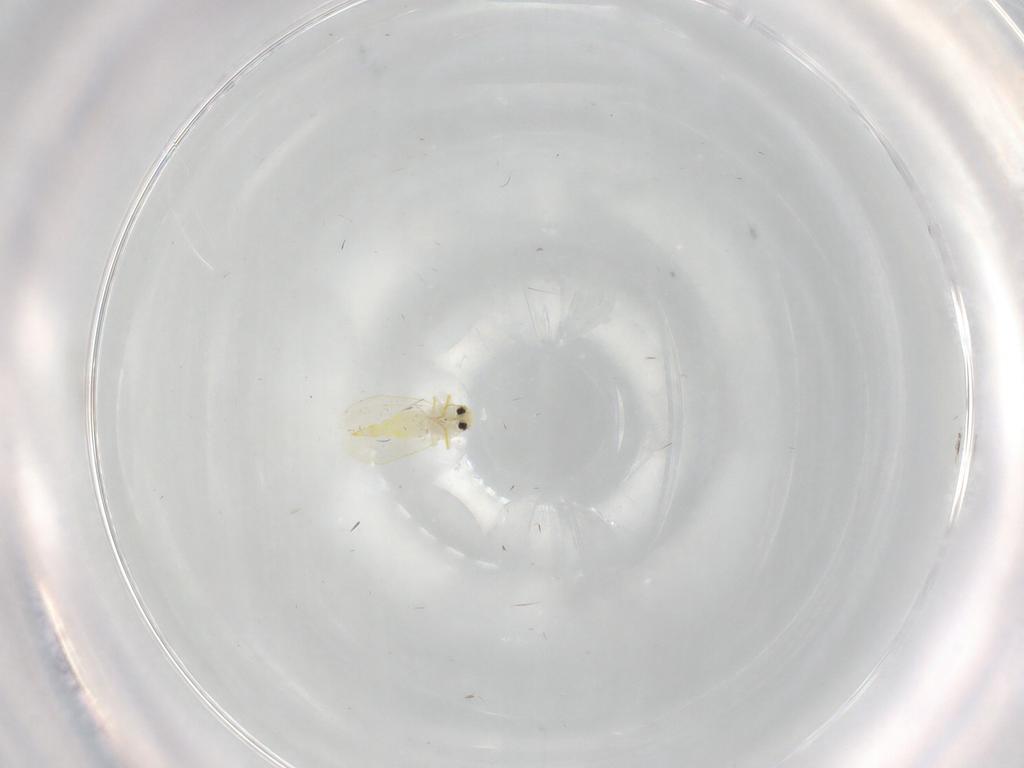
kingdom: Animalia
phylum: Arthropoda
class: Insecta
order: Hemiptera
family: Aleyrodidae
